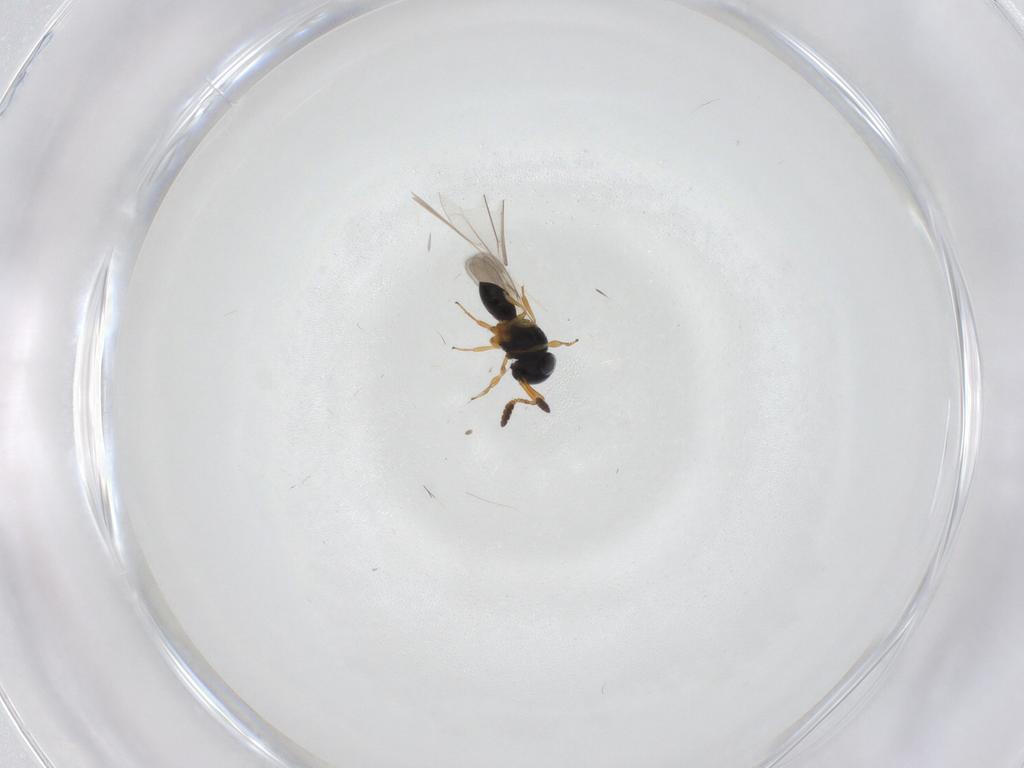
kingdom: Animalia
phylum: Arthropoda
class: Insecta
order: Hymenoptera
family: Scelionidae
